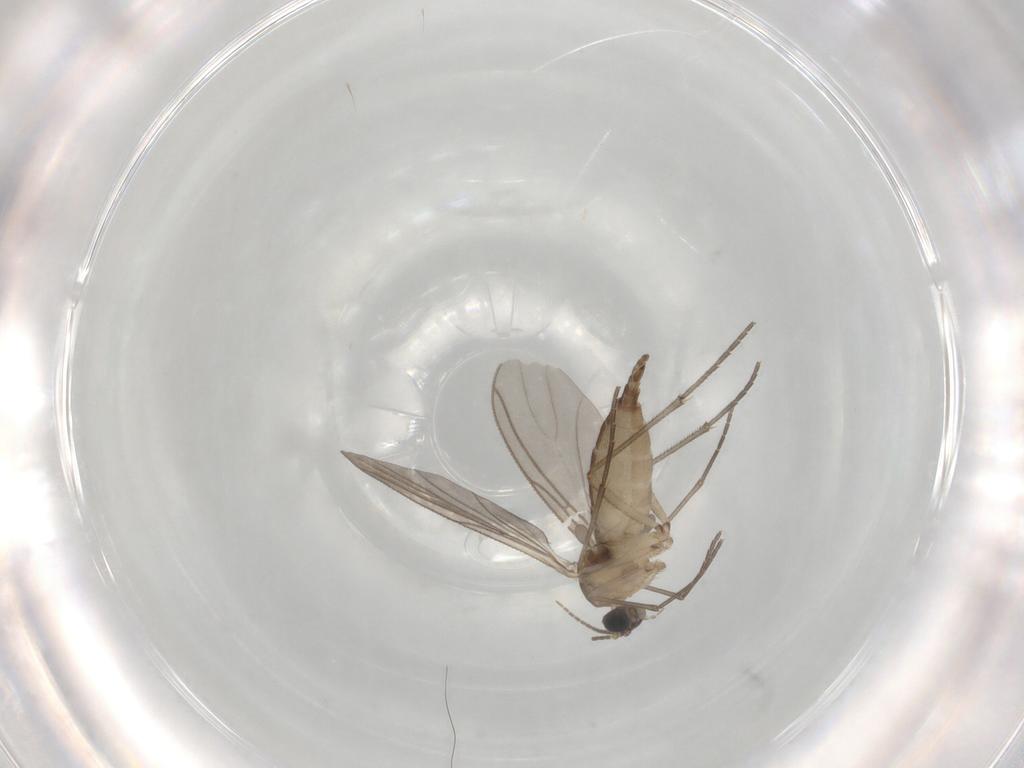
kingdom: Animalia
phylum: Arthropoda
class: Insecta
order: Diptera
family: Sciaridae
